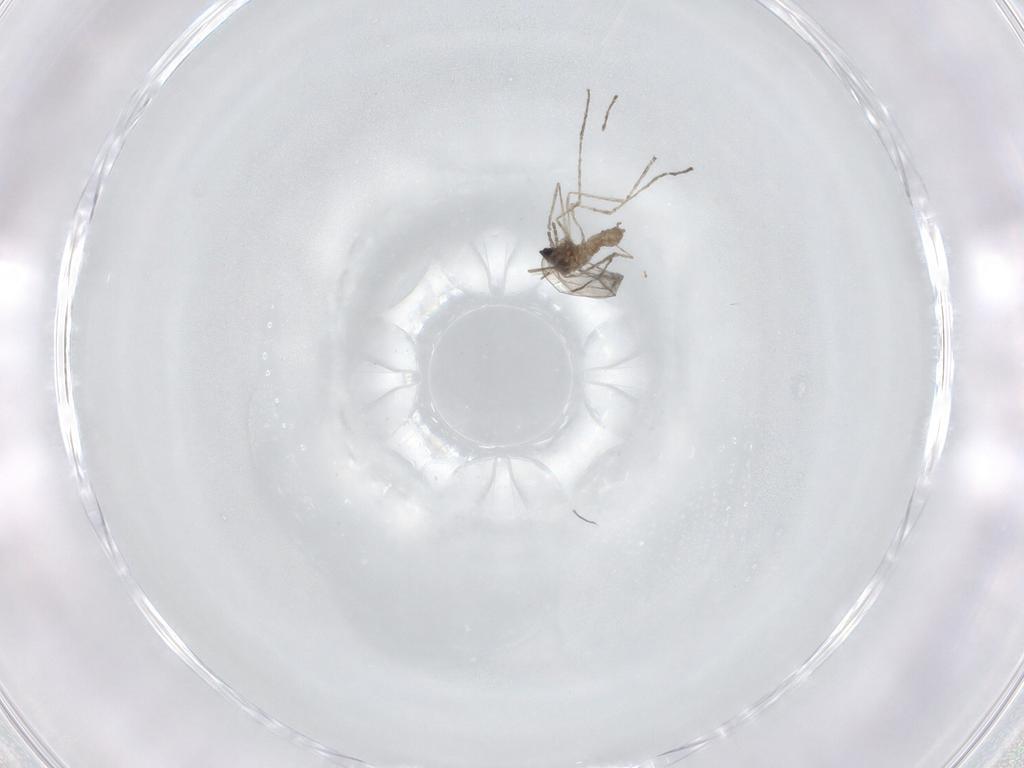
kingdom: Animalia
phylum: Arthropoda
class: Insecta
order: Diptera
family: Cecidomyiidae
